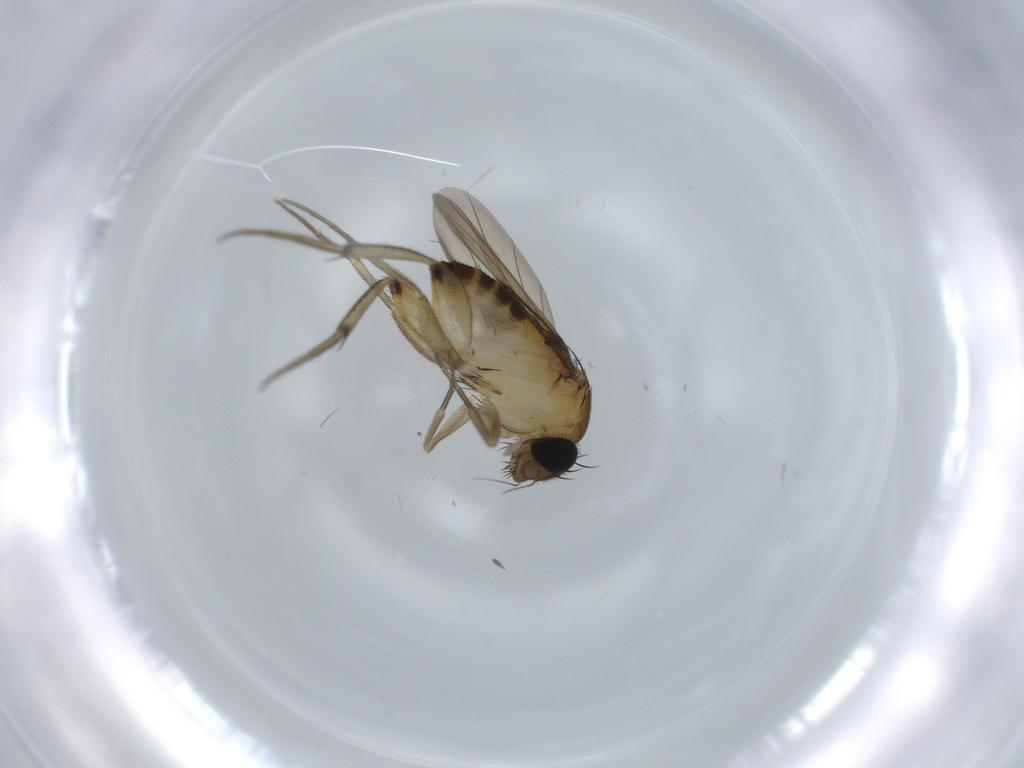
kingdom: Animalia
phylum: Arthropoda
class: Insecta
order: Diptera
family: Phoridae
